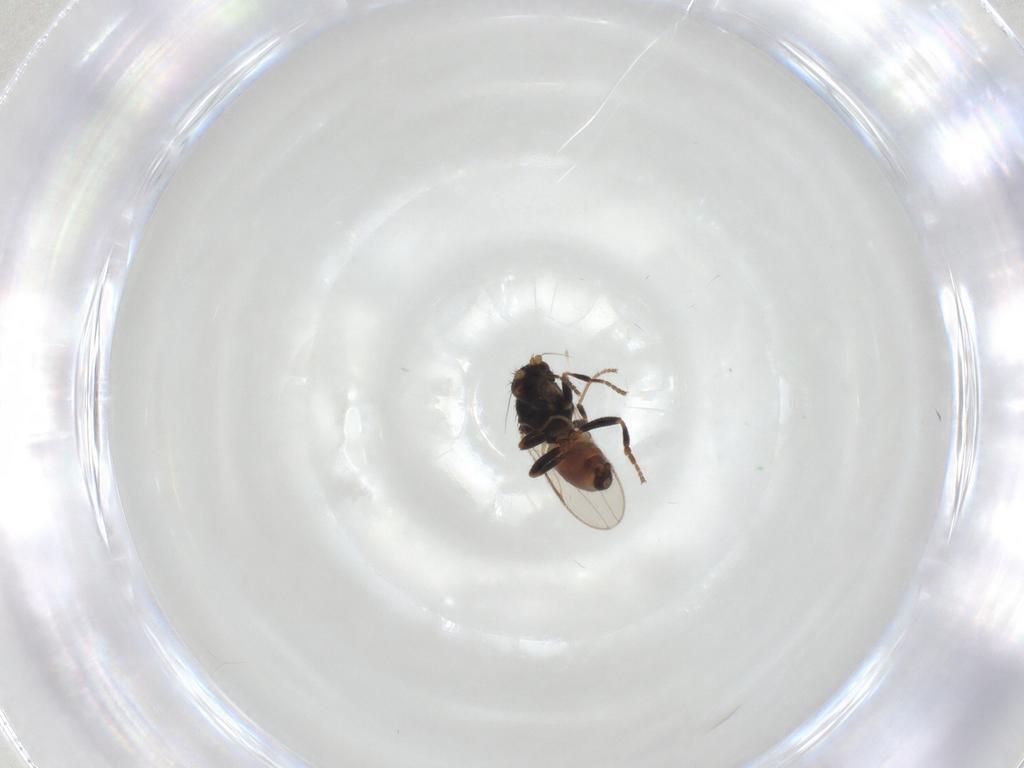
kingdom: Animalia
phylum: Arthropoda
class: Insecta
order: Diptera
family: Sphaeroceridae
